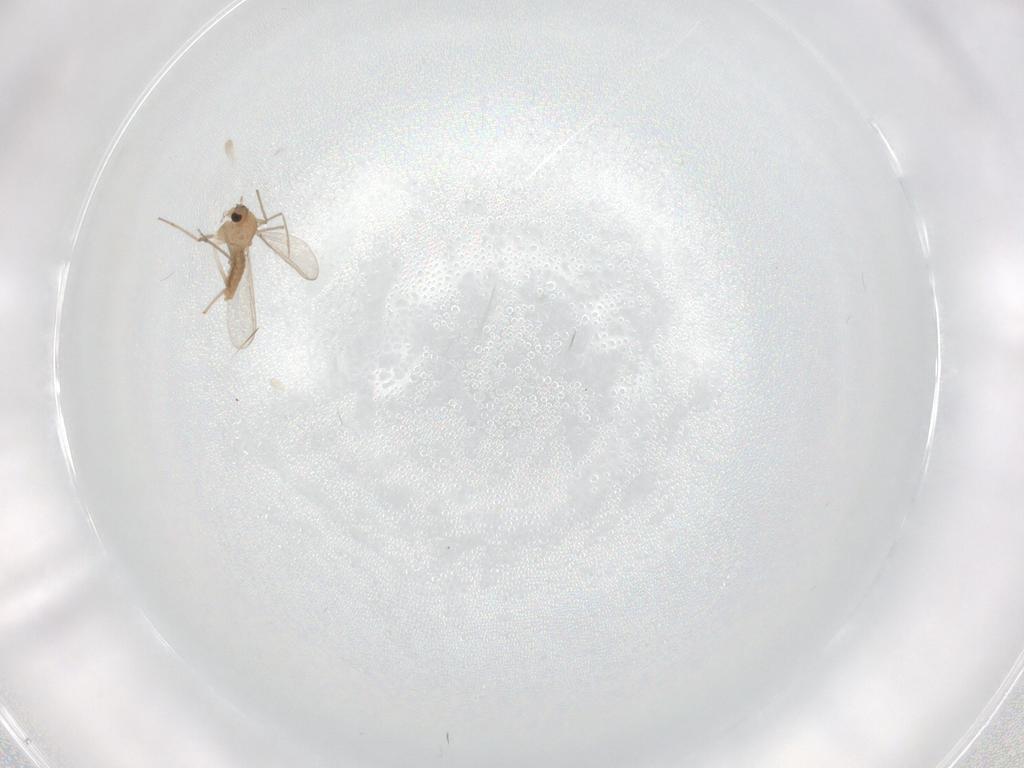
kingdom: Animalia
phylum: Arthropoda
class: Insecta
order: Diptera
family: Chironomidae
